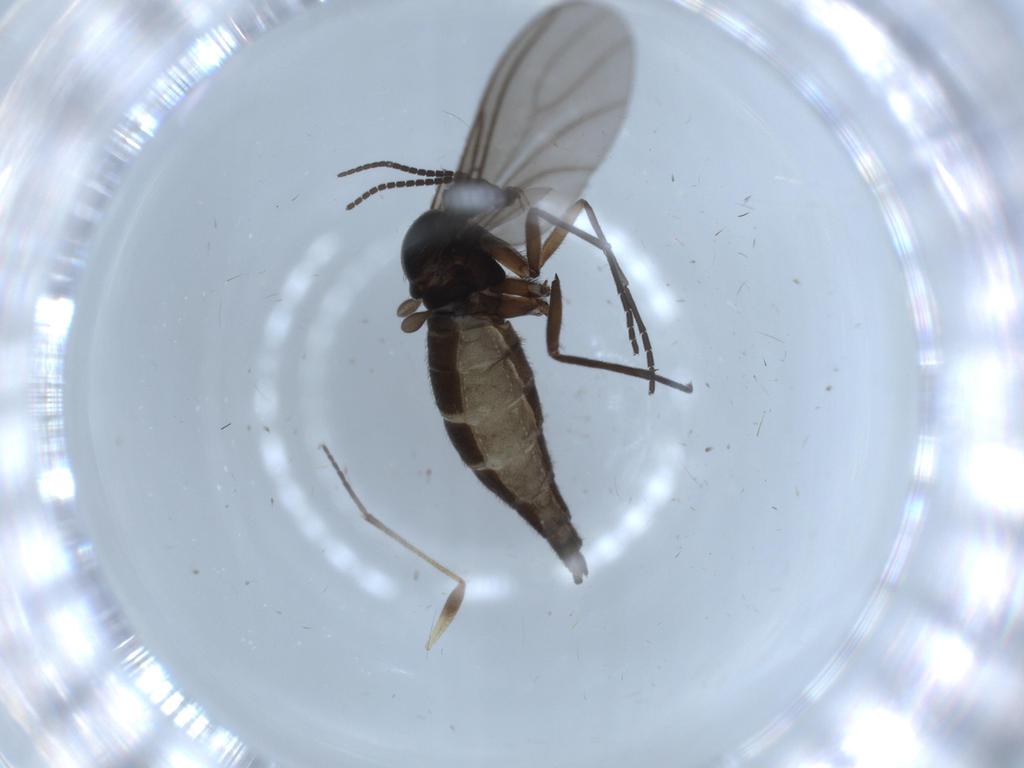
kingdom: Animalia
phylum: Arthropoda
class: Insecta
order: Diptera
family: Sciaridae
